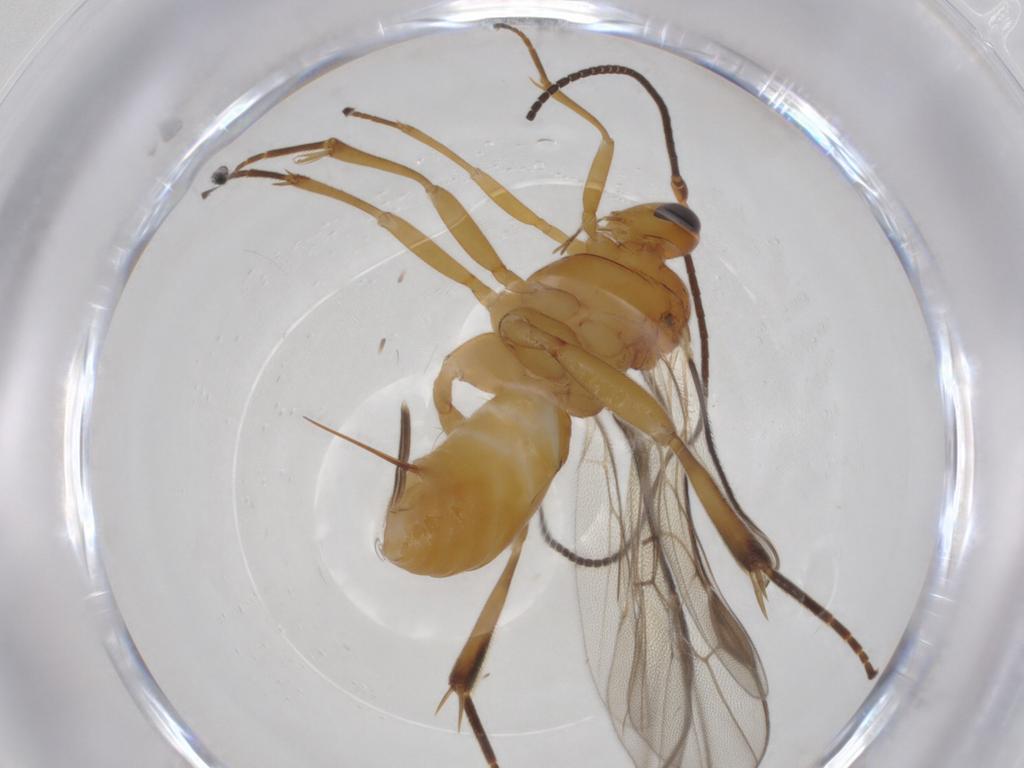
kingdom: Animalia
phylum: Arthropoda
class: Insecta
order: Hymenoptera
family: Braconidae
